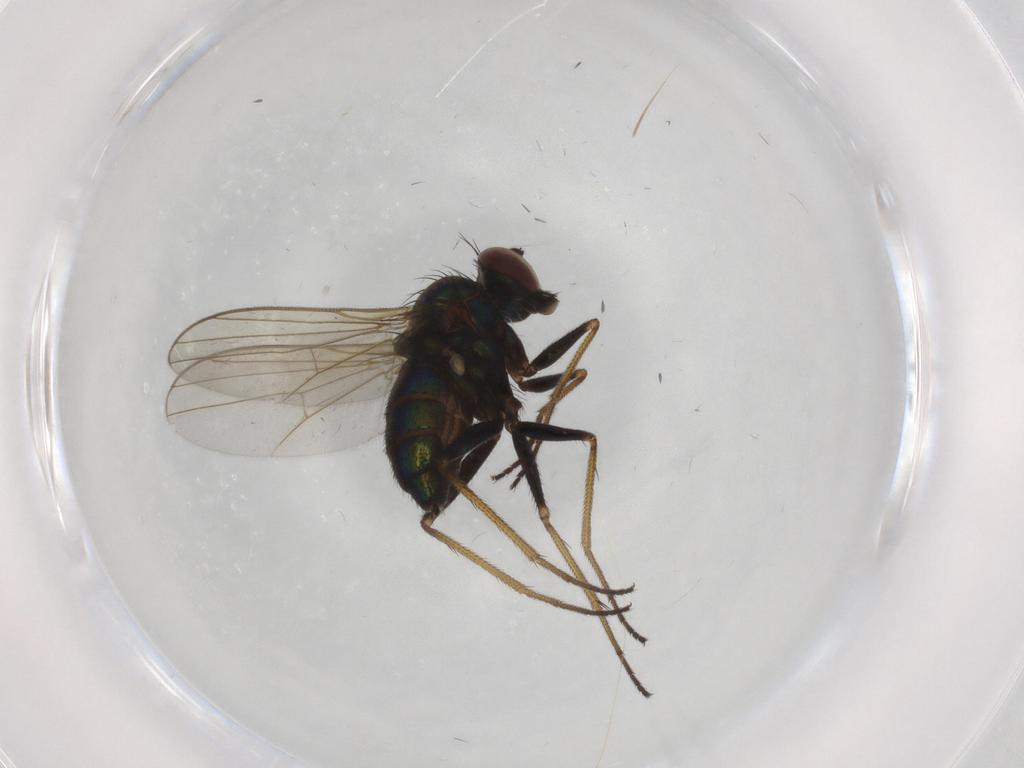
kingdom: Animalia
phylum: Arthropoda
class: Insecta
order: Diptera
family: Dolichopodidae
